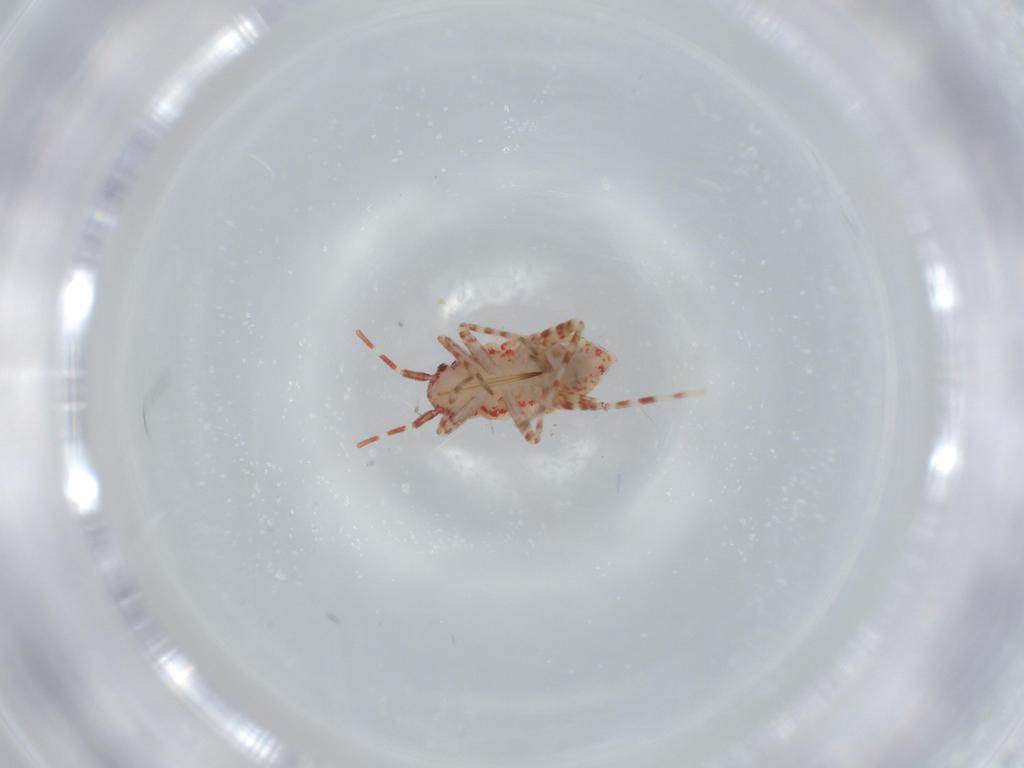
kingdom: Animalia
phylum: Arthropoda
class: Insecta
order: Hemiptera
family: Miridae
